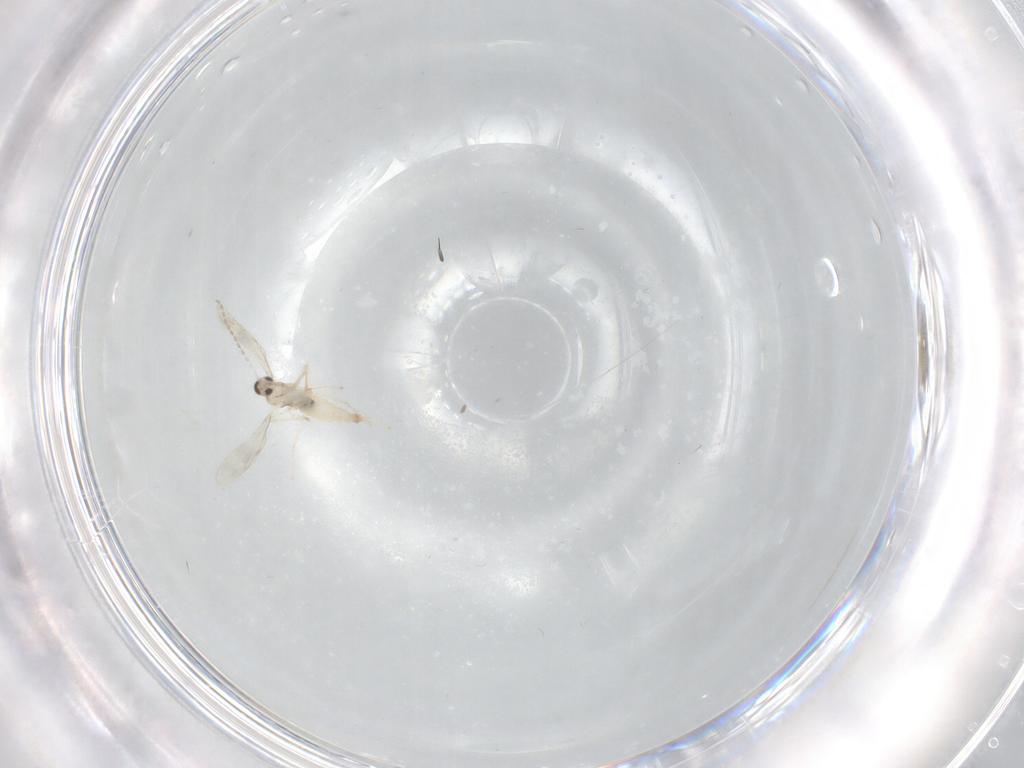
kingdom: Animalia
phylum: Arthropoda
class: Insecta
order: Diptera
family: Cecidomyiidae
